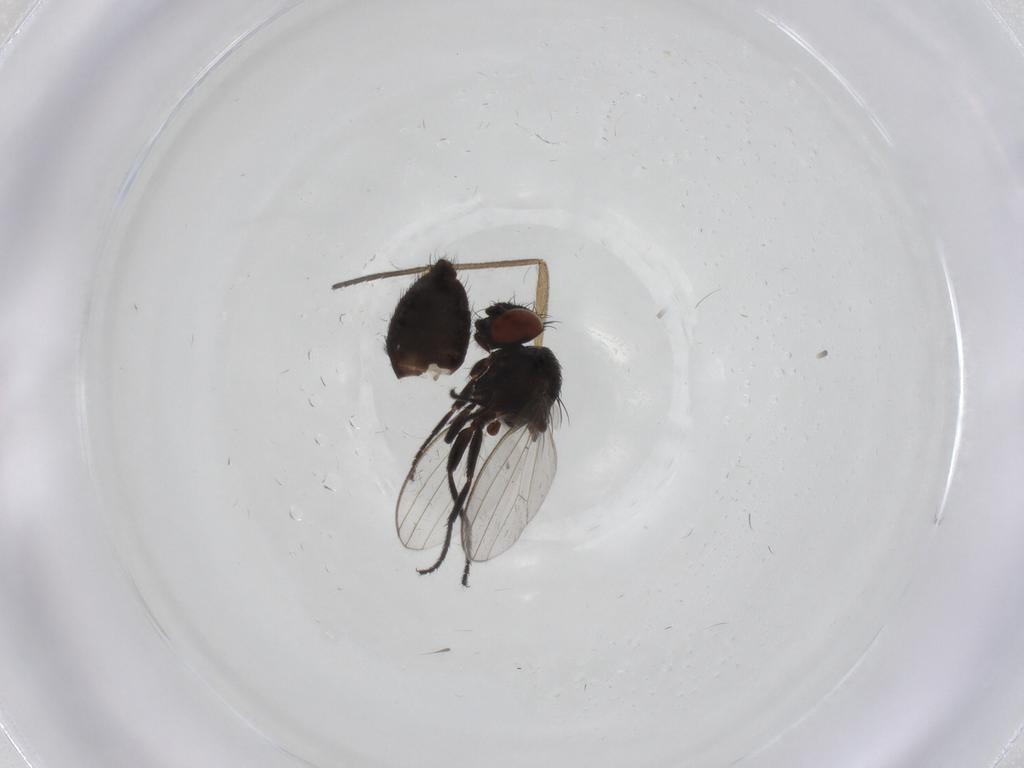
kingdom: Animalia
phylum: Arthropoda
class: Insecta
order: Diptera
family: Milichiidae
